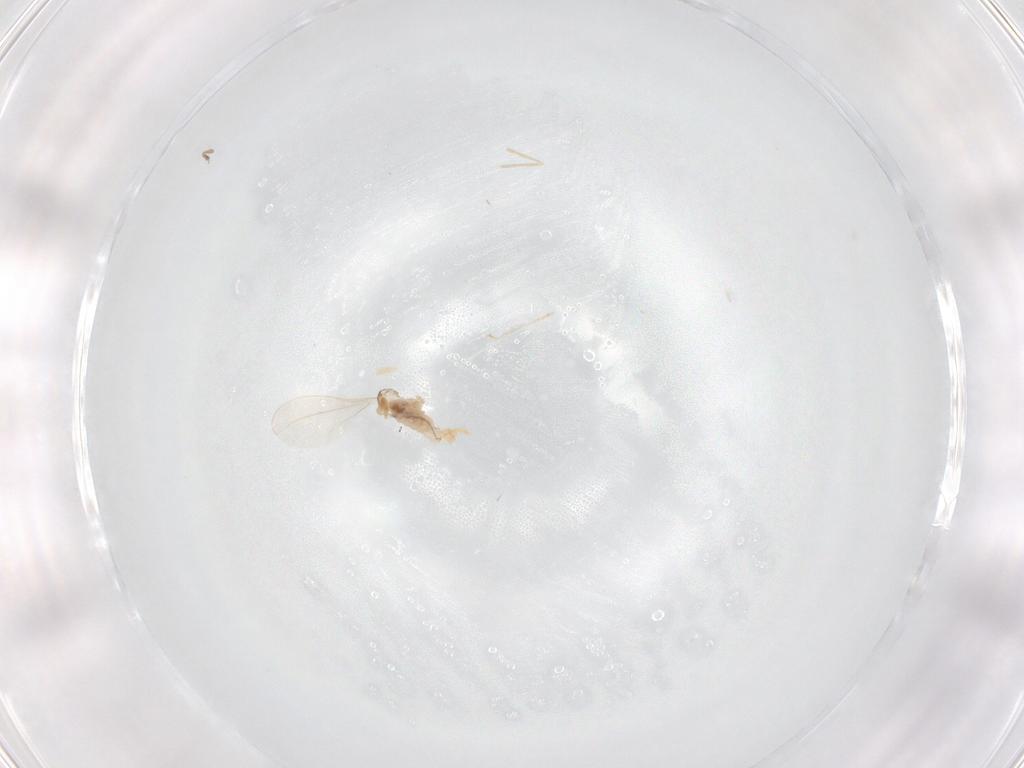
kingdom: Animalia
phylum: Arthropoda
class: Insecta
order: Diptera
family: Cecidomyiidae
